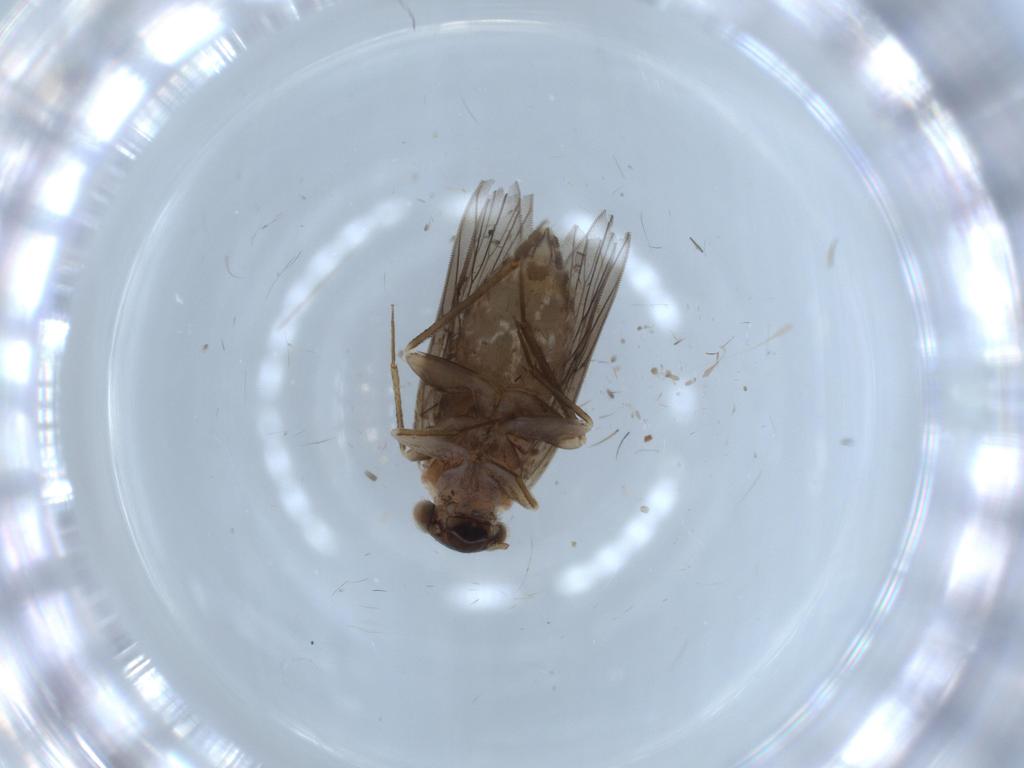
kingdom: Animalia
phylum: Arthropoda
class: Insecta
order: Psocodea
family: Lepidopsocidae
